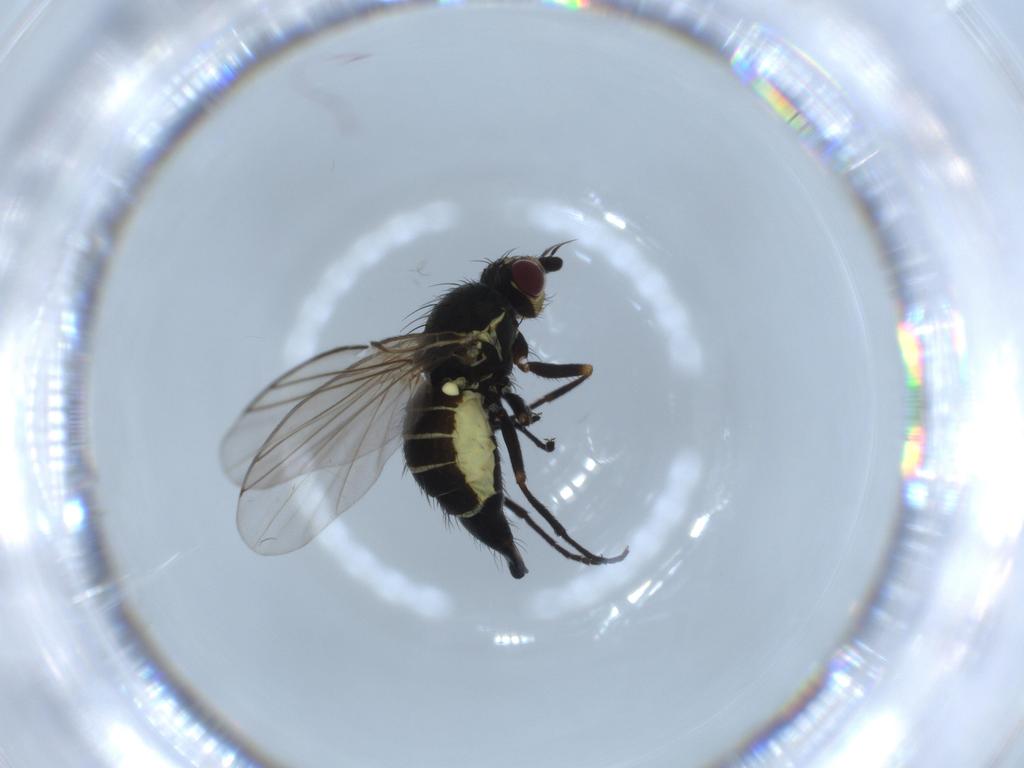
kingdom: Animalia
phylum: Arthropoda
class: Insecta
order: Diptera
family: Agromyzidae
